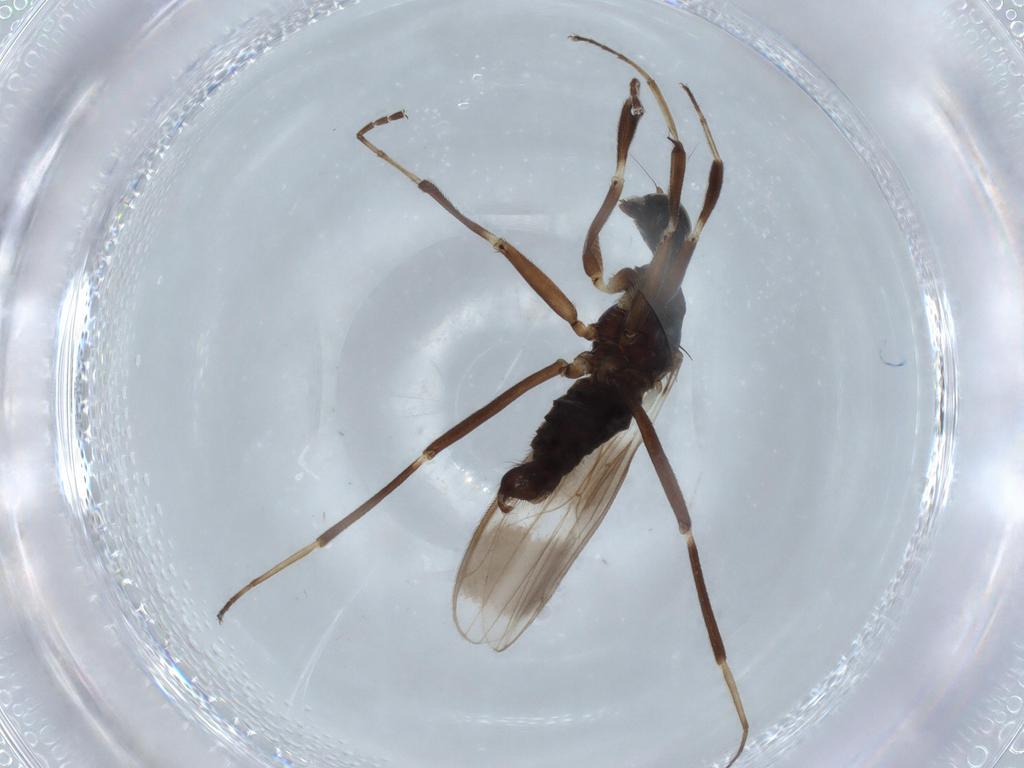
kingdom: Animalia
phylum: Arthropoda
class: Insecta
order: Diptera
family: Hybotidae
